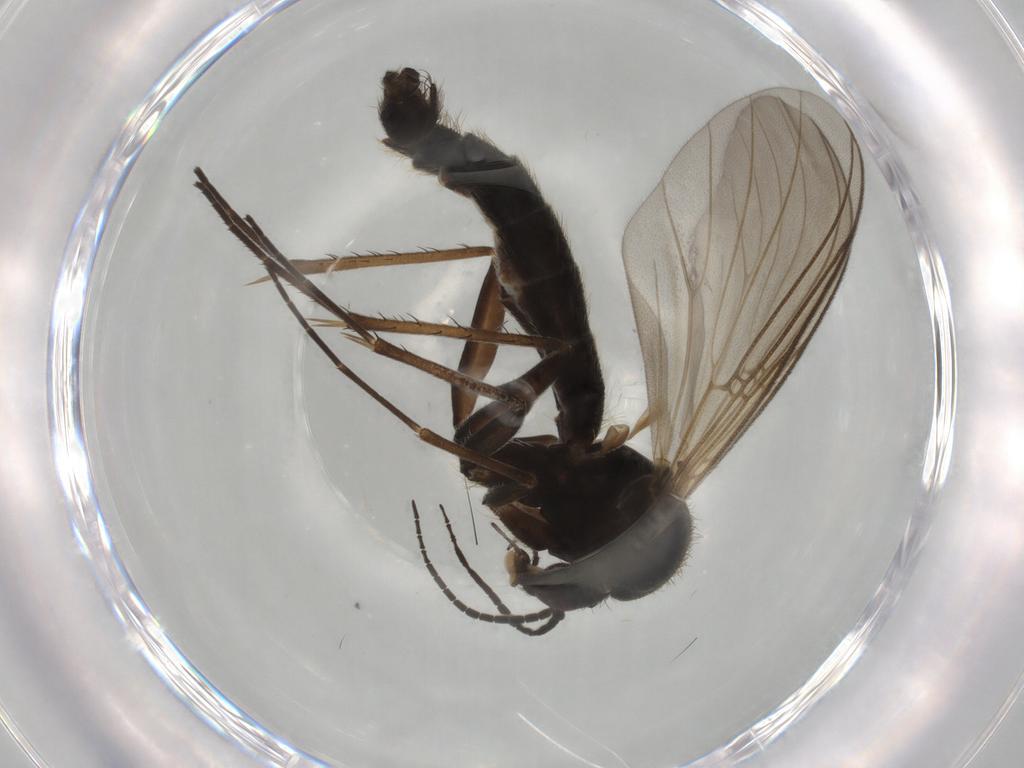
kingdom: Animalia
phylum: Arthropoda
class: Insecta
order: Diptera
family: Mycetophilidae
